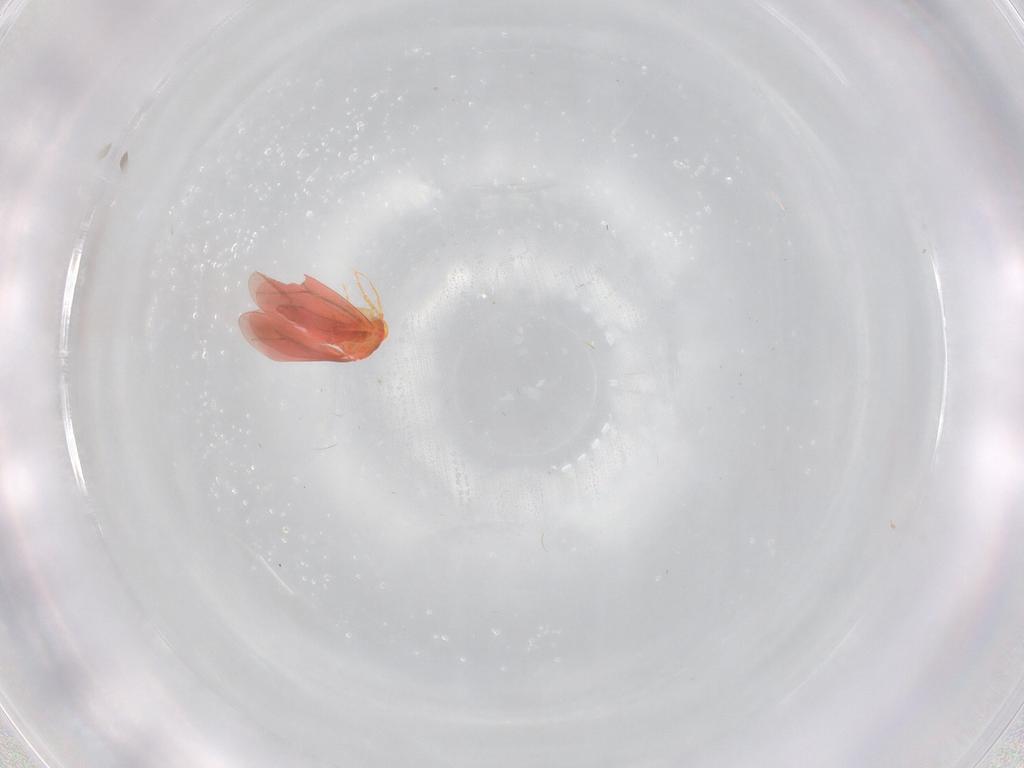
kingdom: Animalia
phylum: Arthropoda
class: Insecta
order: Hemiptera
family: Aleyrodidae
